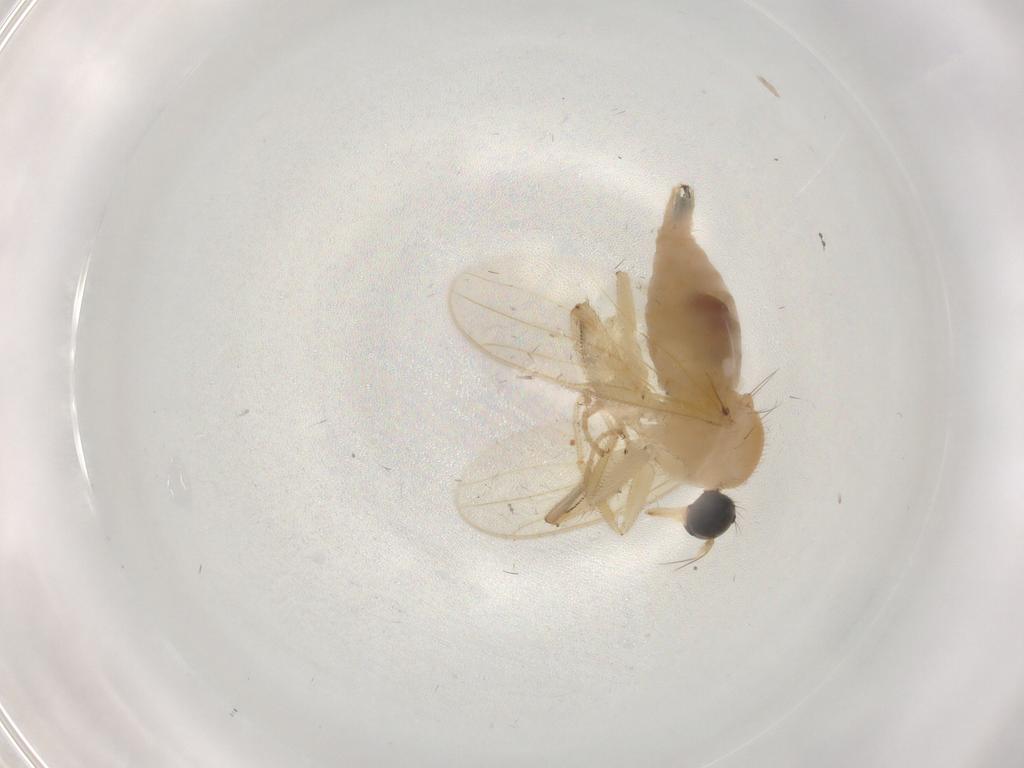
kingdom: Animalia
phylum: Arthropoda
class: Insecta
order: Diptera
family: Hybotidae
